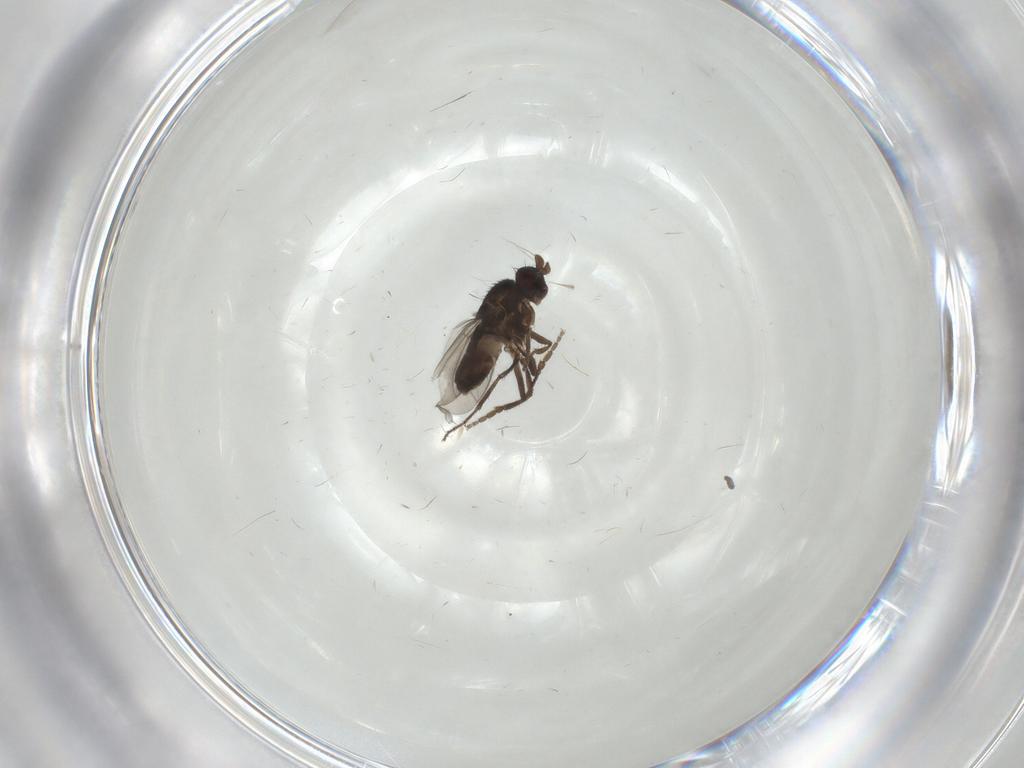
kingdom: Animalia
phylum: Arthropoda
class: Insecta
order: Diptera
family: Sphaeroceridae
